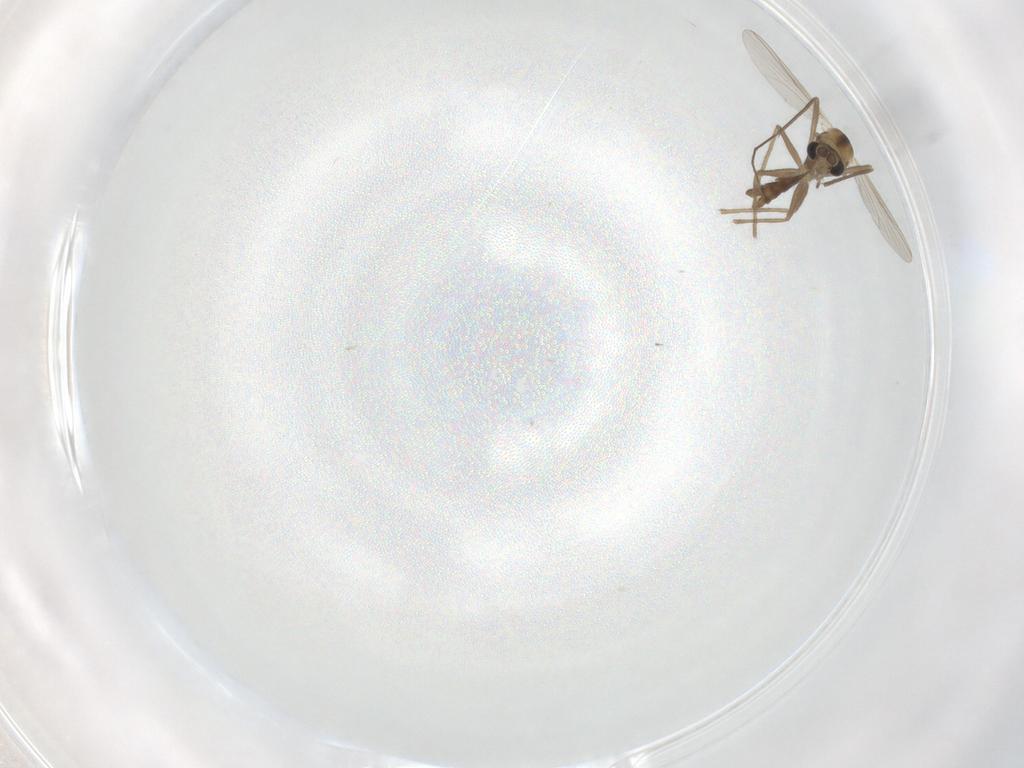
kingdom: Animalia
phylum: Arthropoda
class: Insecta
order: Diptera
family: Chironomidae
